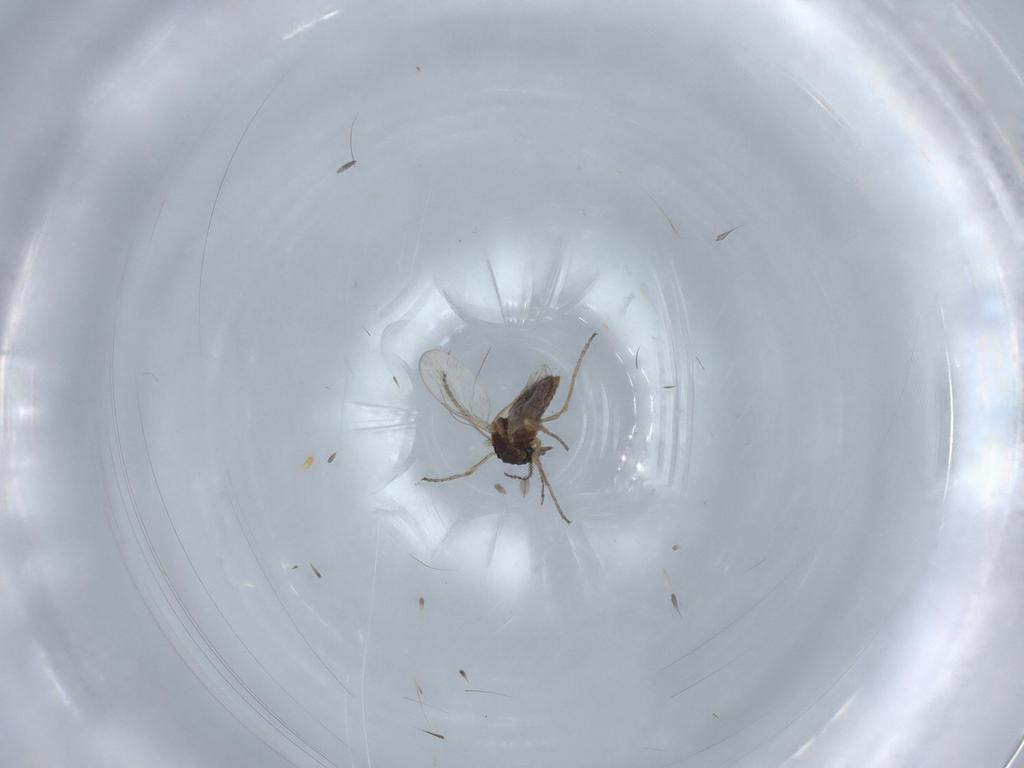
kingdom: Animalia
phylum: Arthropoda
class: Insecta
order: Diptera
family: Ceratopogonidae
